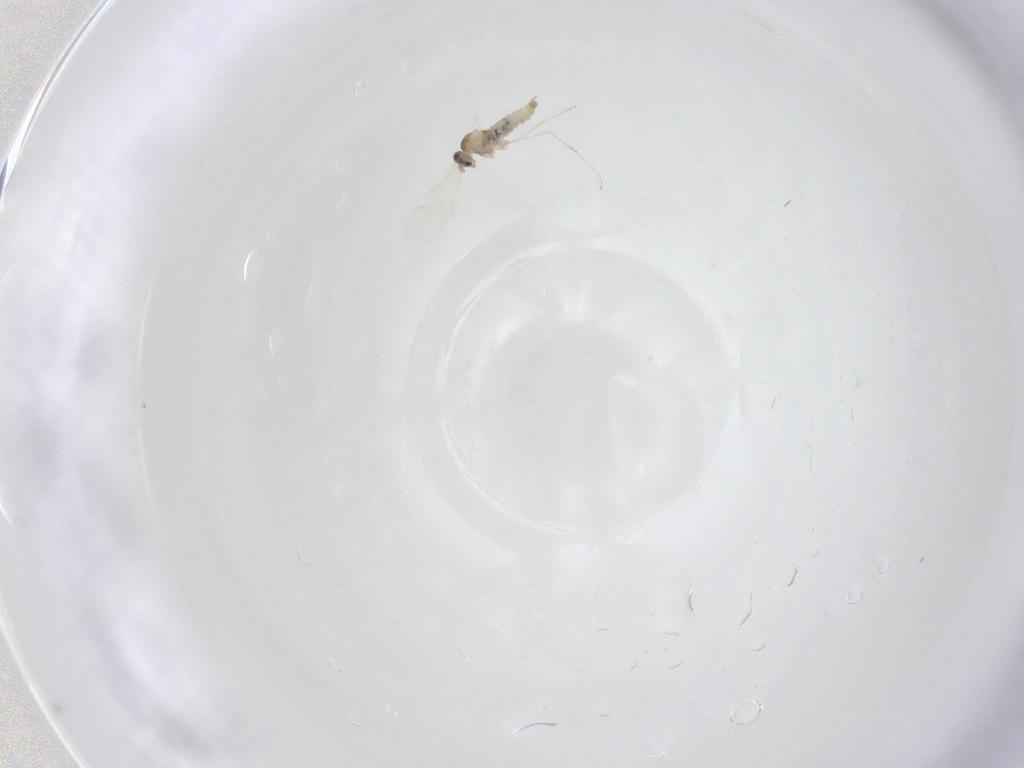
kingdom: Animalia
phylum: Arthropoda
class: Insecta
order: Diptera
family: Cecidomyiidae
